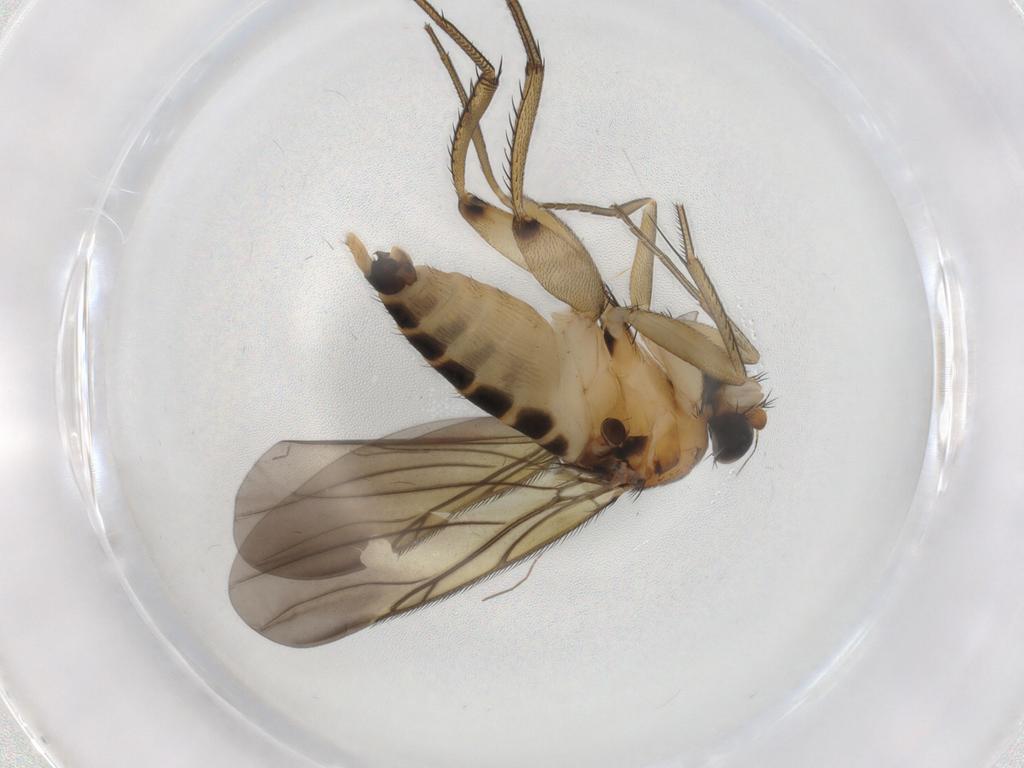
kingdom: Animalia
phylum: Arthropoda
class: Insecta
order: Diptera
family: Phoridae
